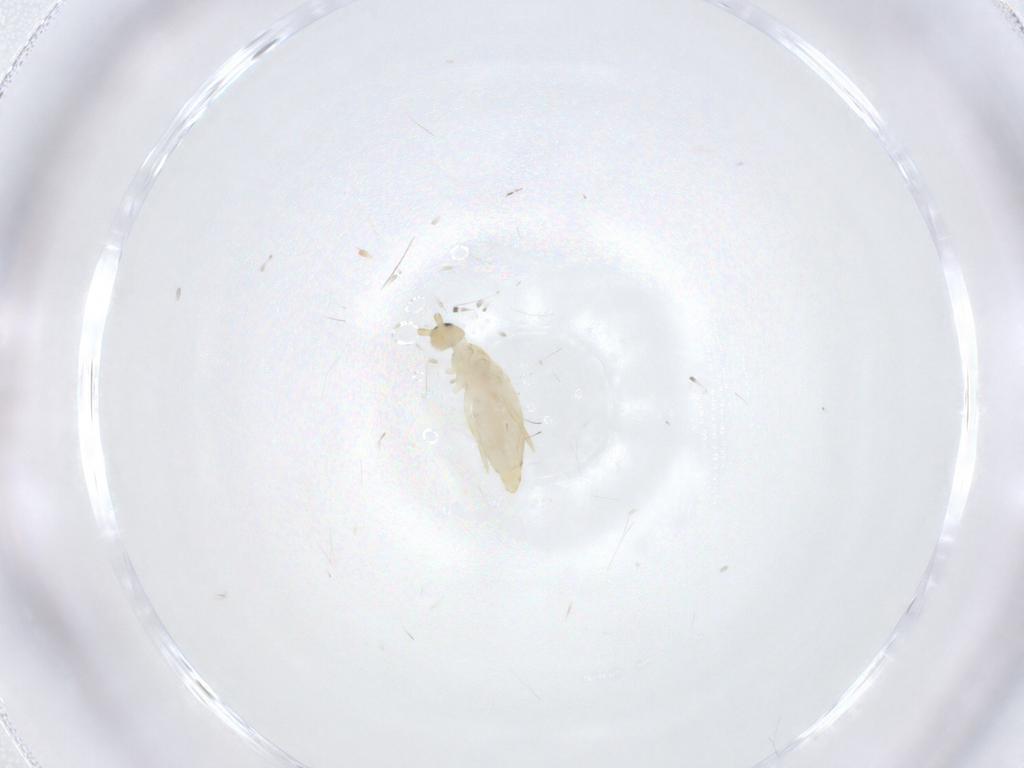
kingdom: Animalia
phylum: Arthropoda
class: Collembola
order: Entomobryomorpha
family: Entomobryidae
